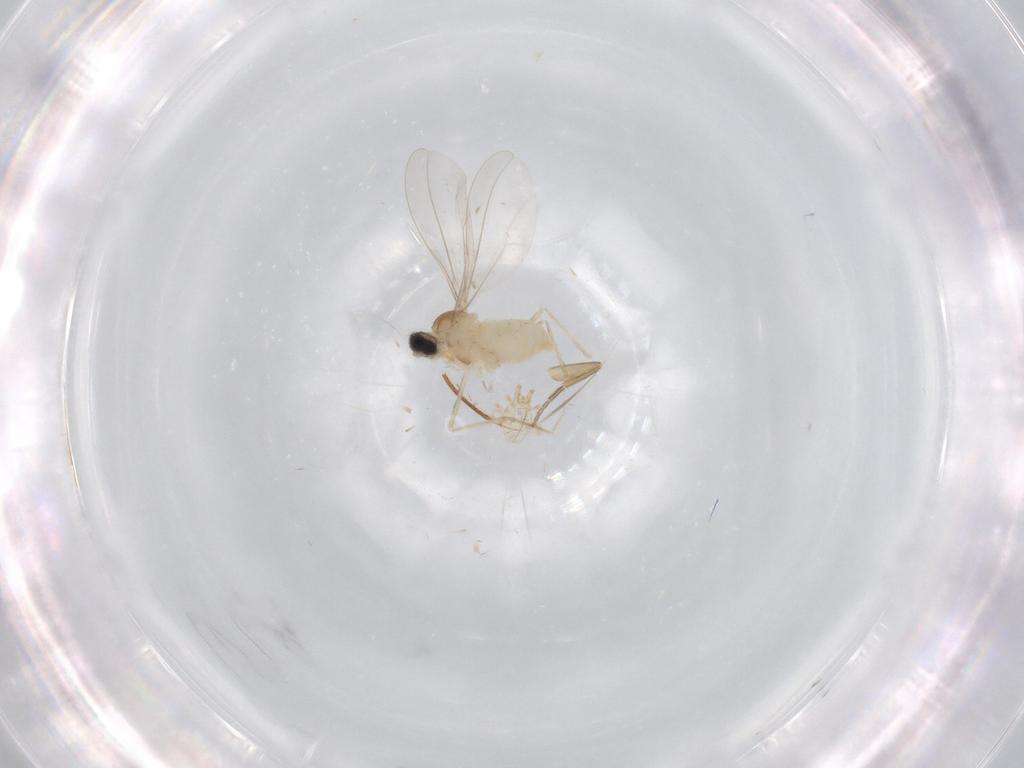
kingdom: Animalia
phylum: Arthropoda
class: Insecta
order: Diptera
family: Cecidomyiidae
